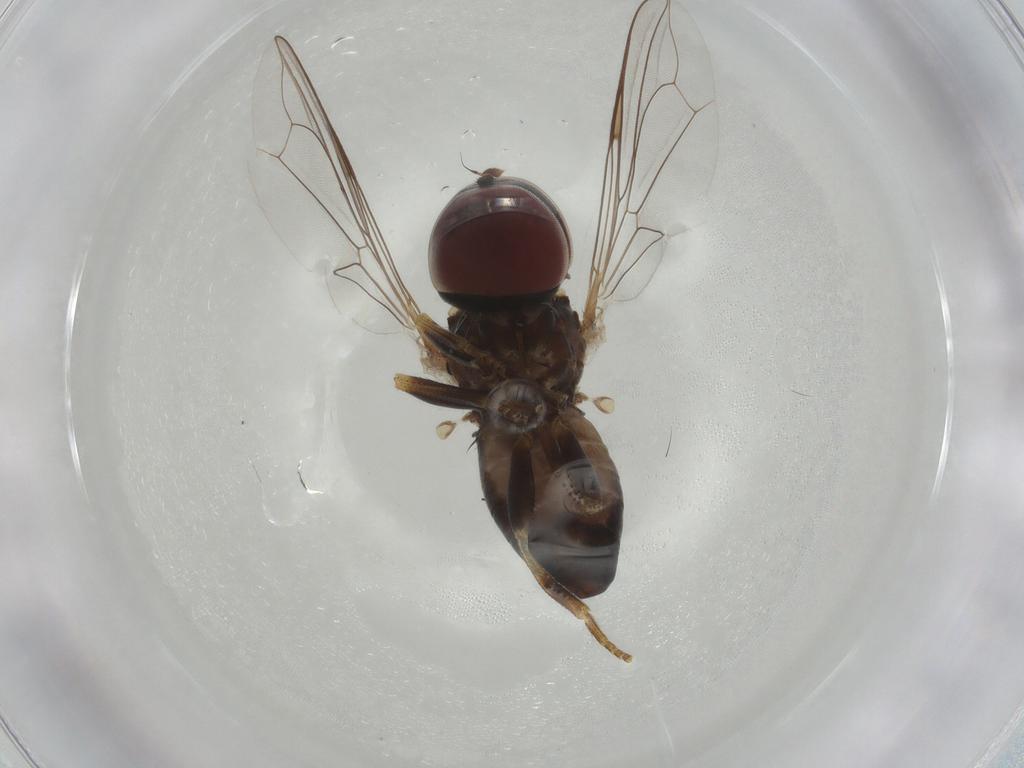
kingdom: Animalia
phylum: Arthropoda
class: Insecta
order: Diptera
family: Pipunculidae
